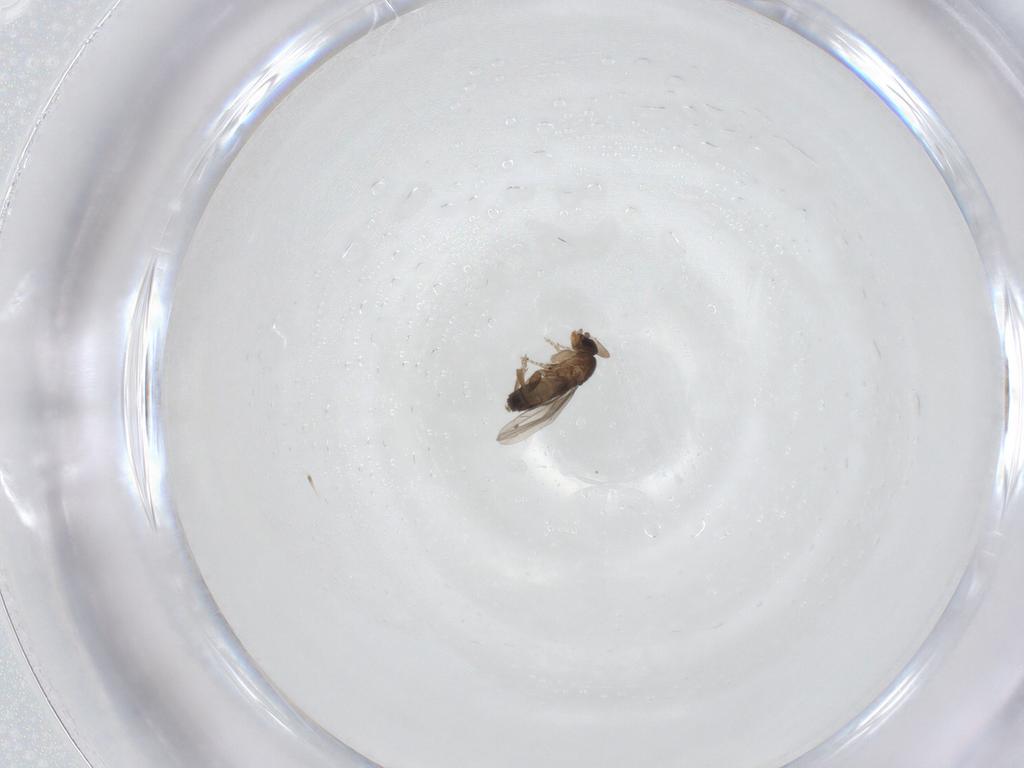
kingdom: Animalia
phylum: Arthropoda
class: Insecta
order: Diptera
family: Phoridae
